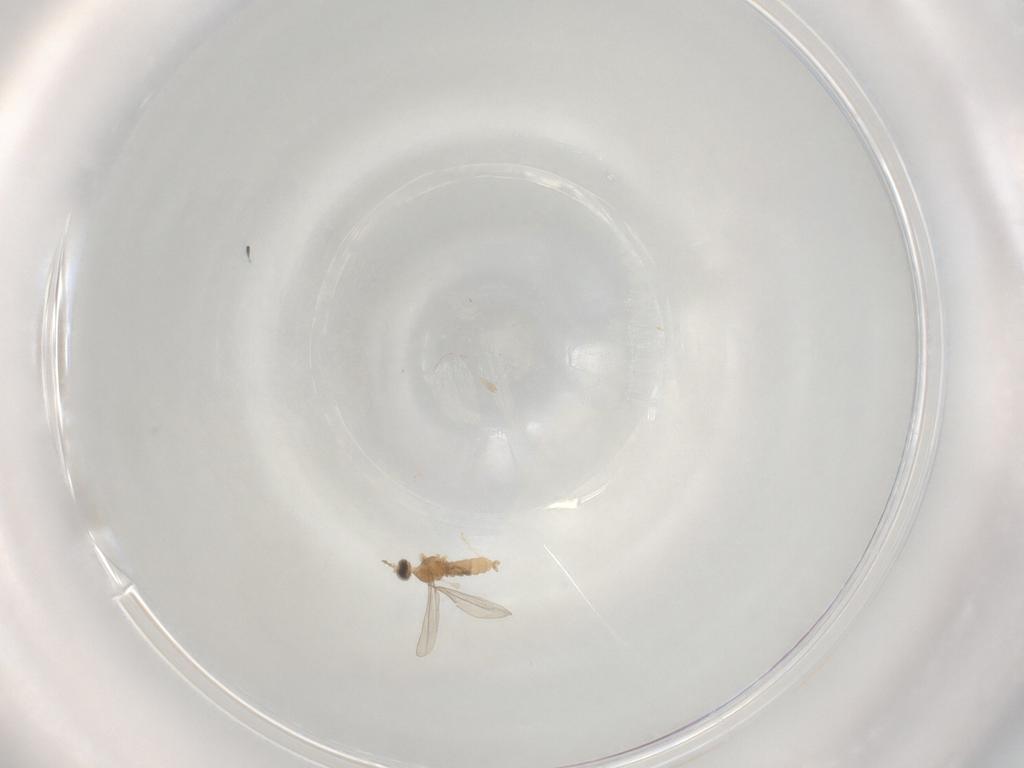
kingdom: Animalia
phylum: Arthropoda
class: Insecta
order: Diptera
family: Cecidomyiidae
